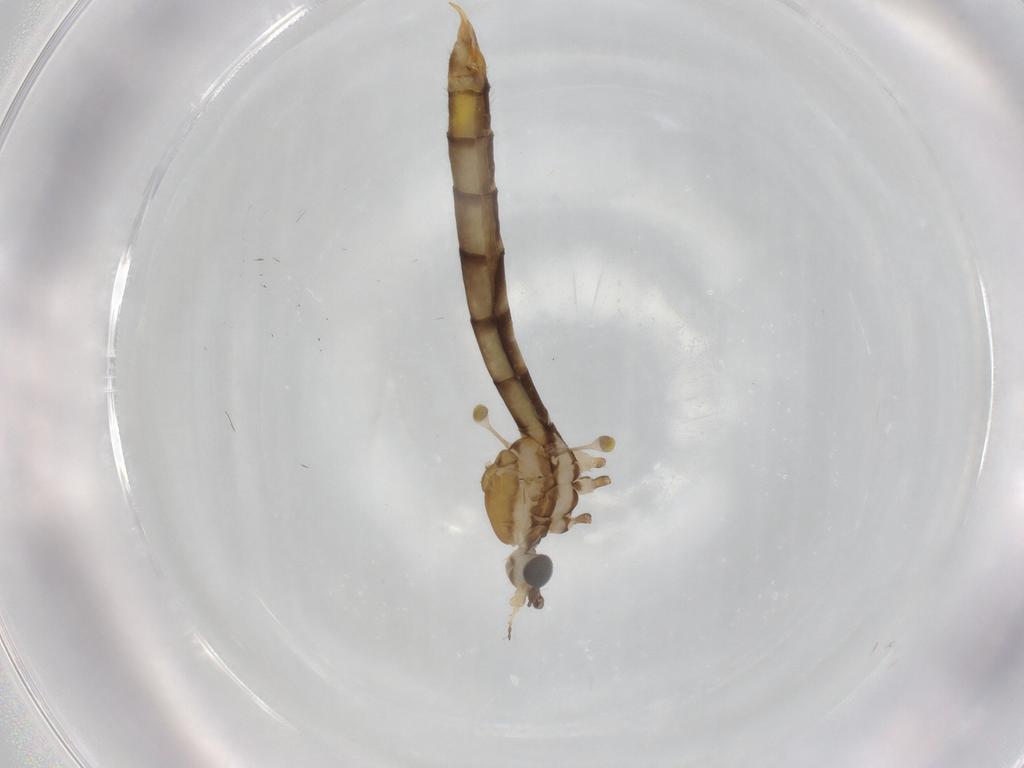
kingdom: Animalia
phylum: Arthropoda
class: Insecta
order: Diptera
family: Limoniidae
